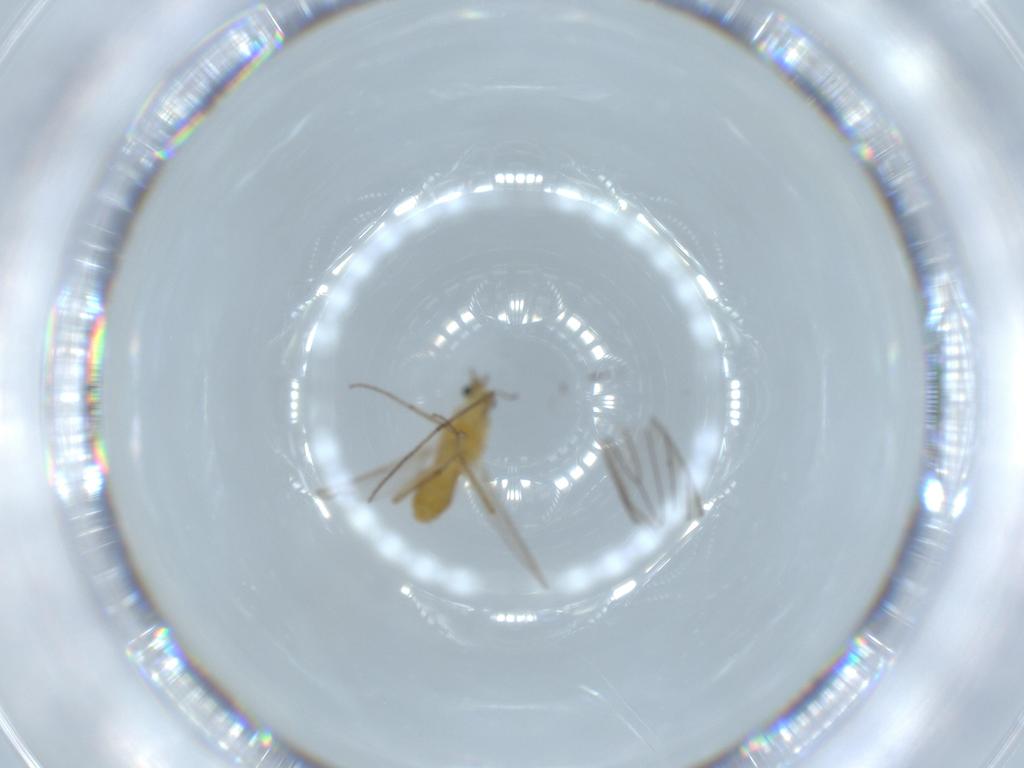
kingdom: Animalia
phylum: Arthropoda
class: Insecta
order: Diptera
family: Chironomidae
